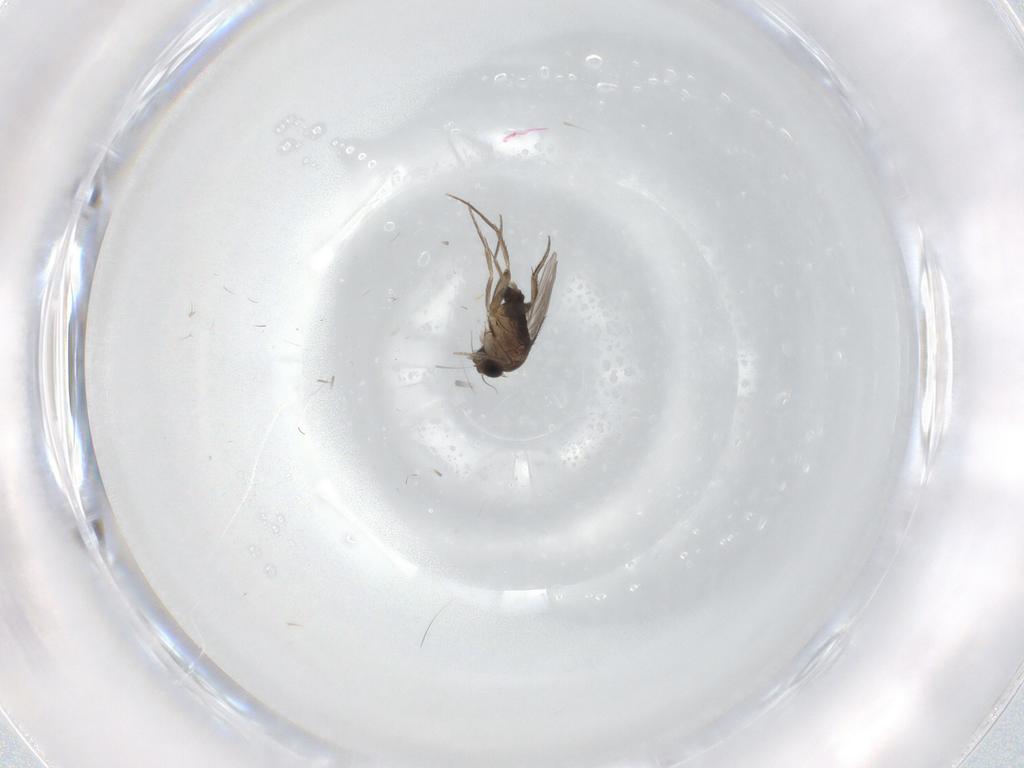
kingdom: Animalia
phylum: Arthropoda
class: Insecta
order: Diptera
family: Phoridae
